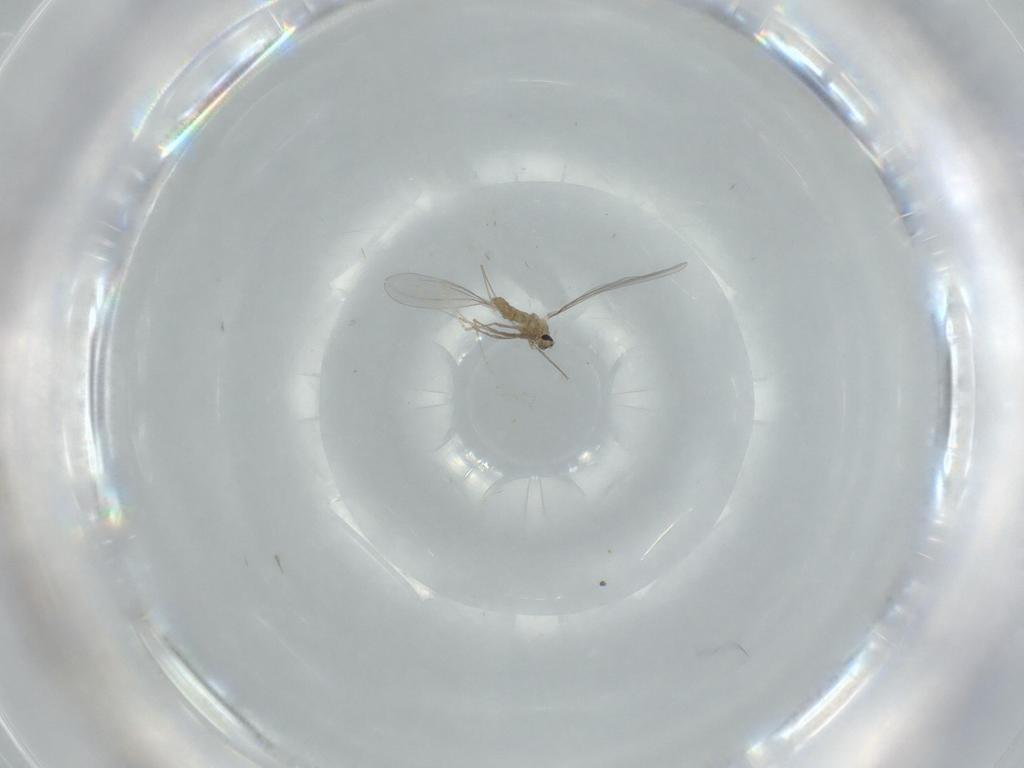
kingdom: Animalia
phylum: Arthropoda
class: Insecta
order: Diptera
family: Cecidomyiidae
